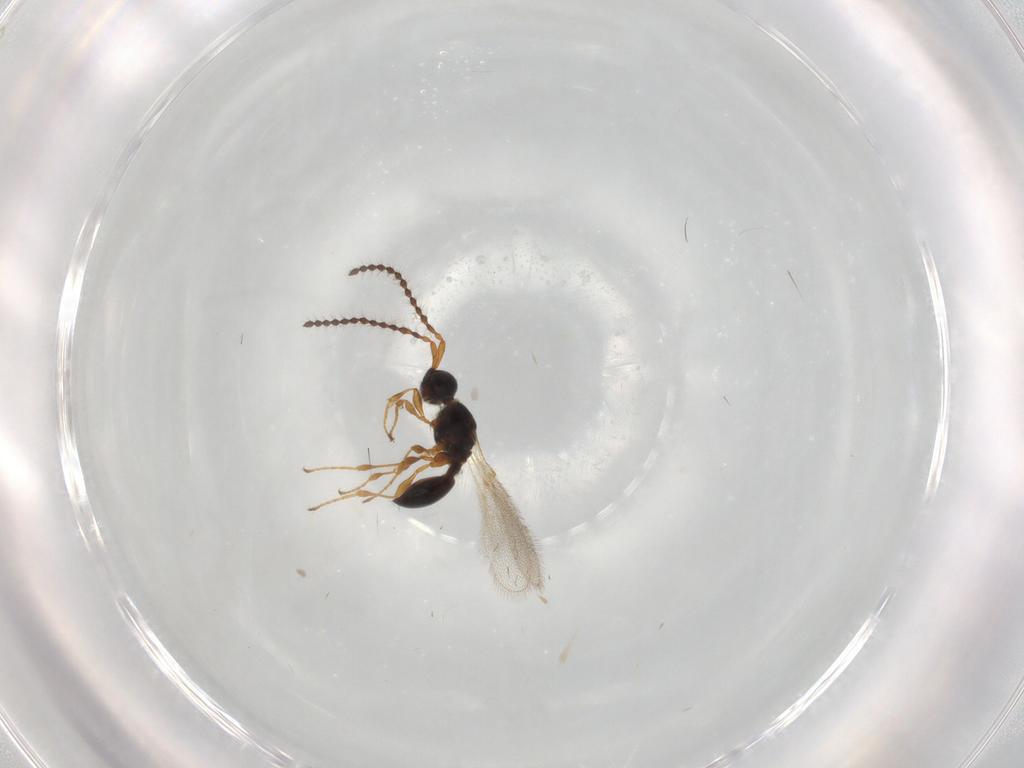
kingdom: Animalia
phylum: Arthropoda
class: Insecta
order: Hymenoptera
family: Diapriidae
